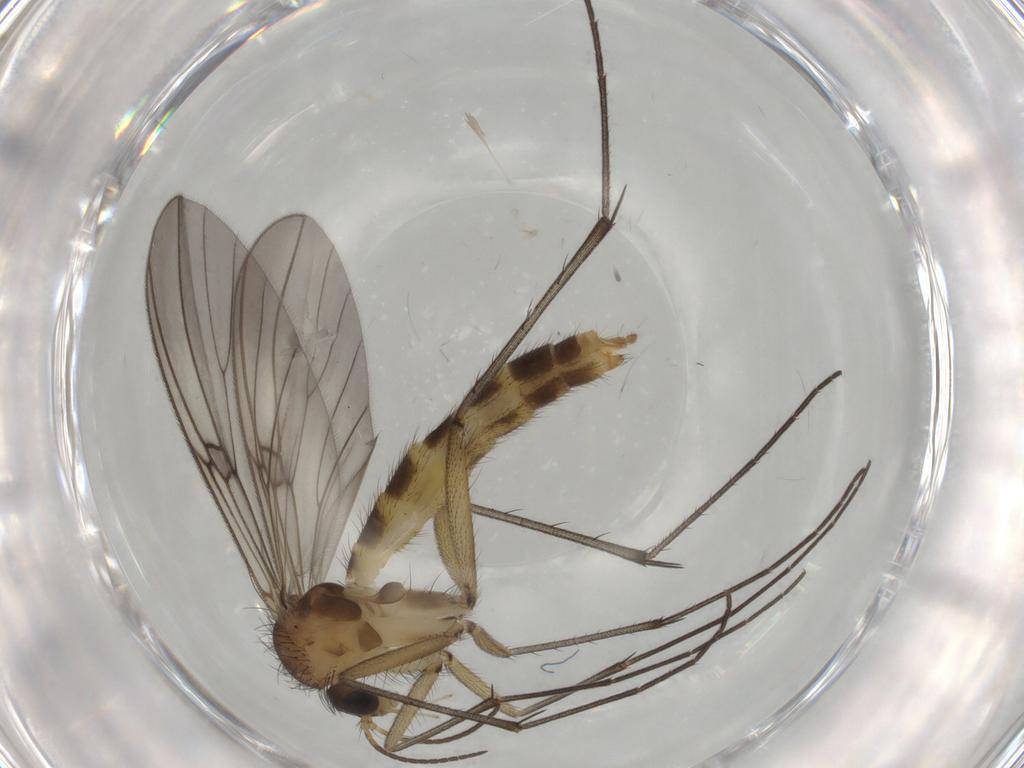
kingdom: Animalia
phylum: Arthropoda
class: Insecta
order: Diptera
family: Mycetophilidae
